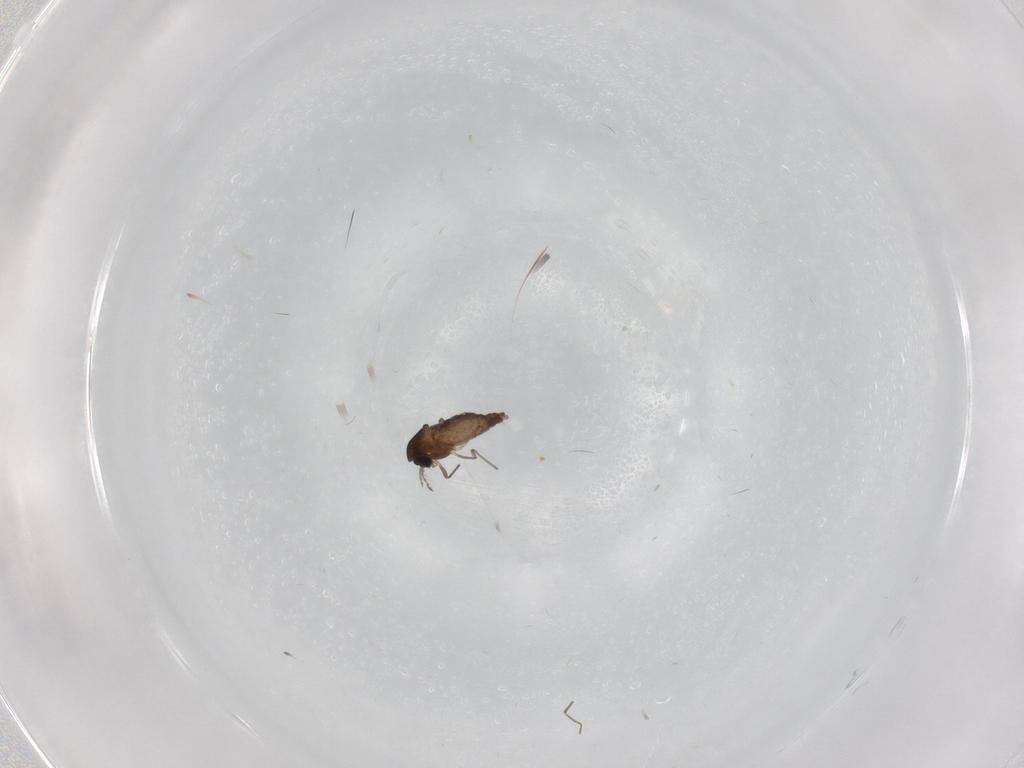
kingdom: Animalia
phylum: Arthropoda
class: Insecta
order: Diptera
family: Chironomidae
